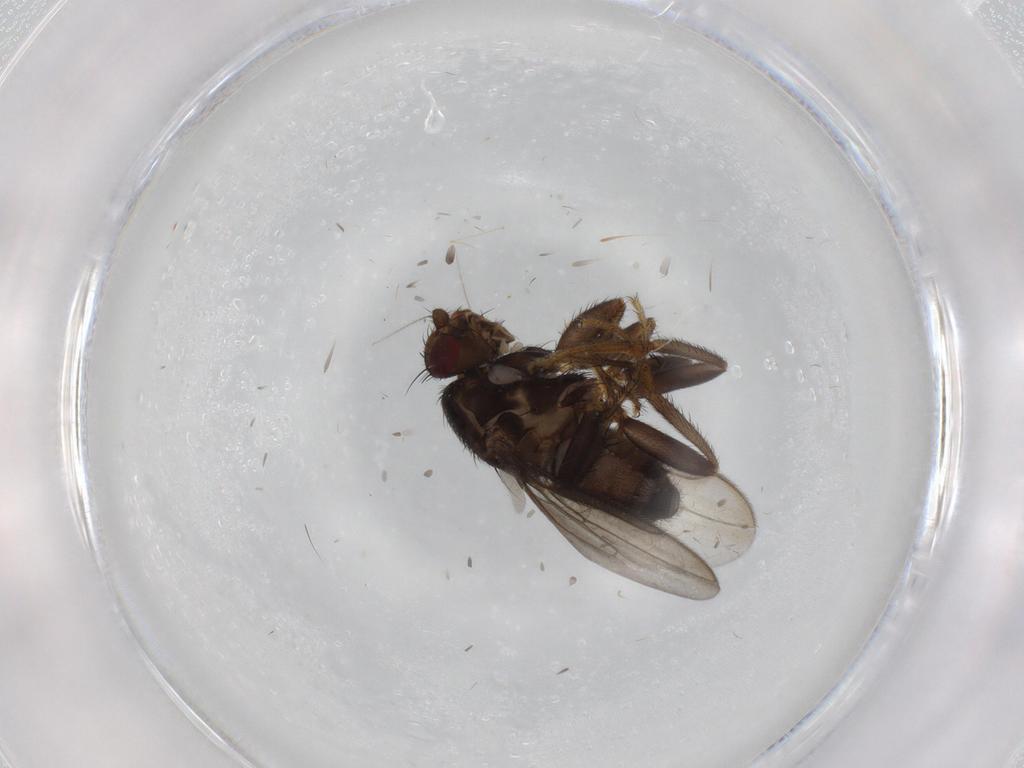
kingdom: Animalia
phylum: Arthropoda
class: Insecta
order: Diptera
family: Sphaeroceridae
